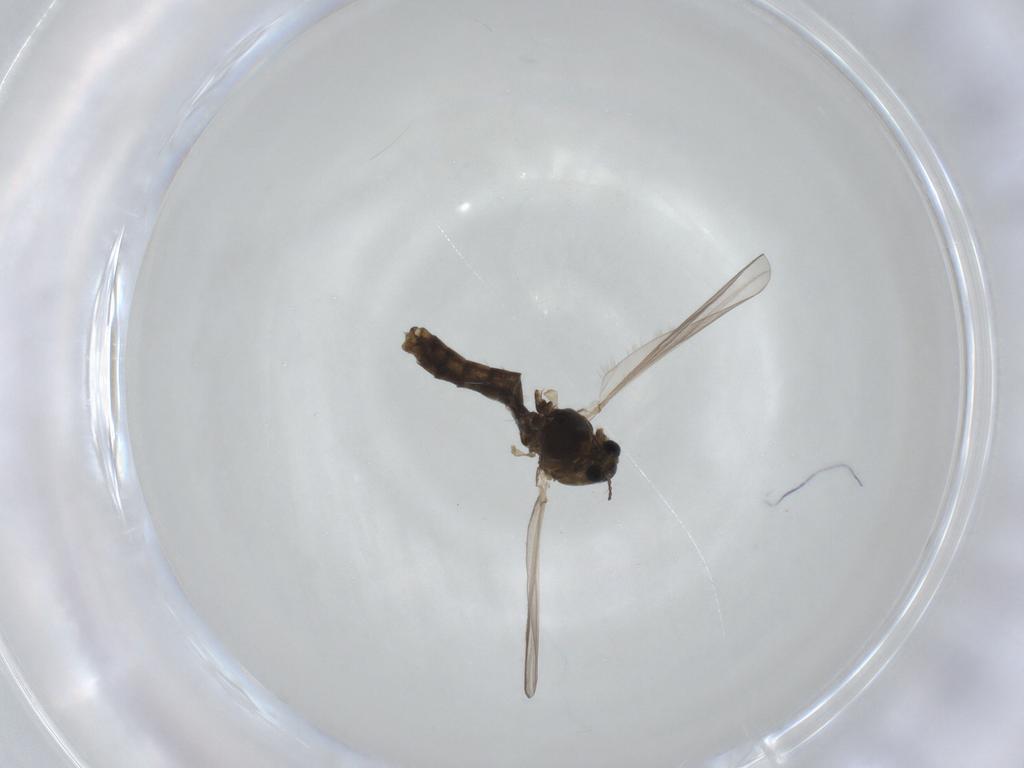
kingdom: Animalia
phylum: Arthropoda
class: Insecta
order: Diptera
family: Chironomidae
